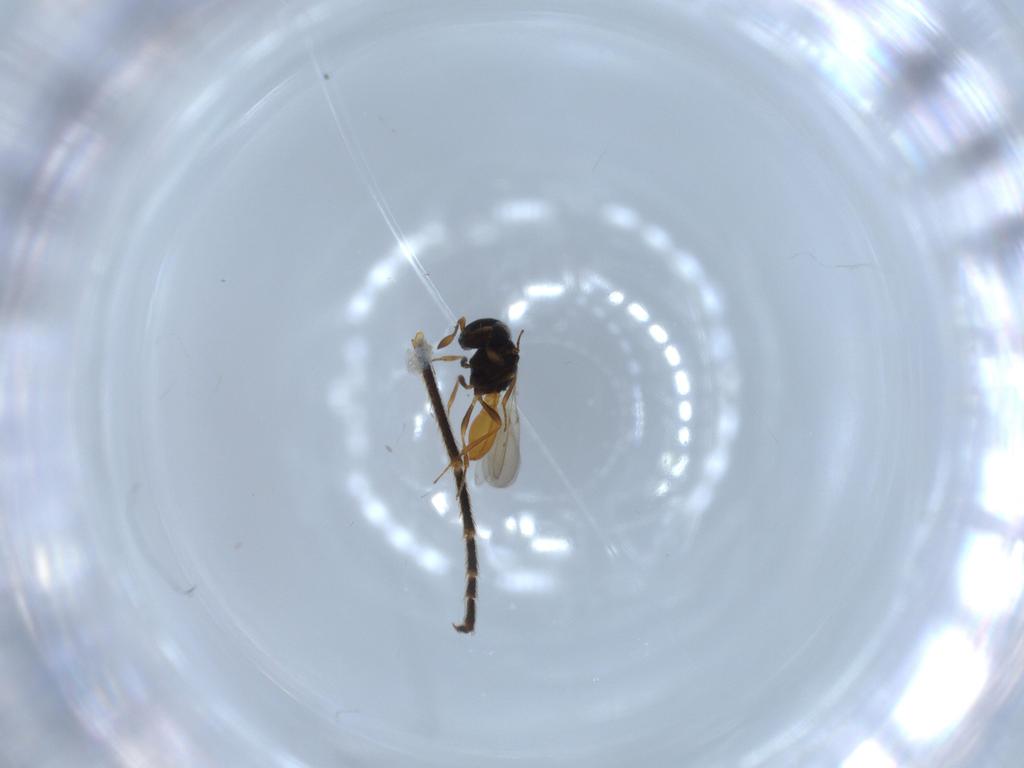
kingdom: Animalia
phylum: Arthropoda
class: Insecta
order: Hymenoptera
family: Scelionidae
